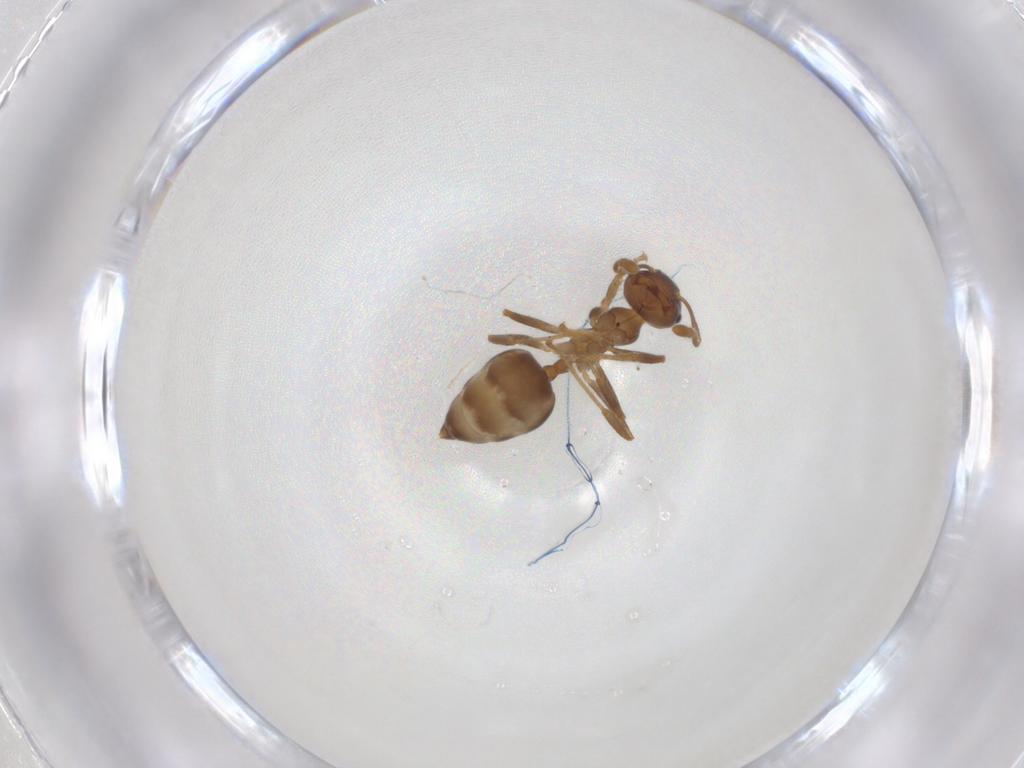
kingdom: Animalia
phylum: Arthropoda
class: Insecta
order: Hymenoptera
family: Formicidae
